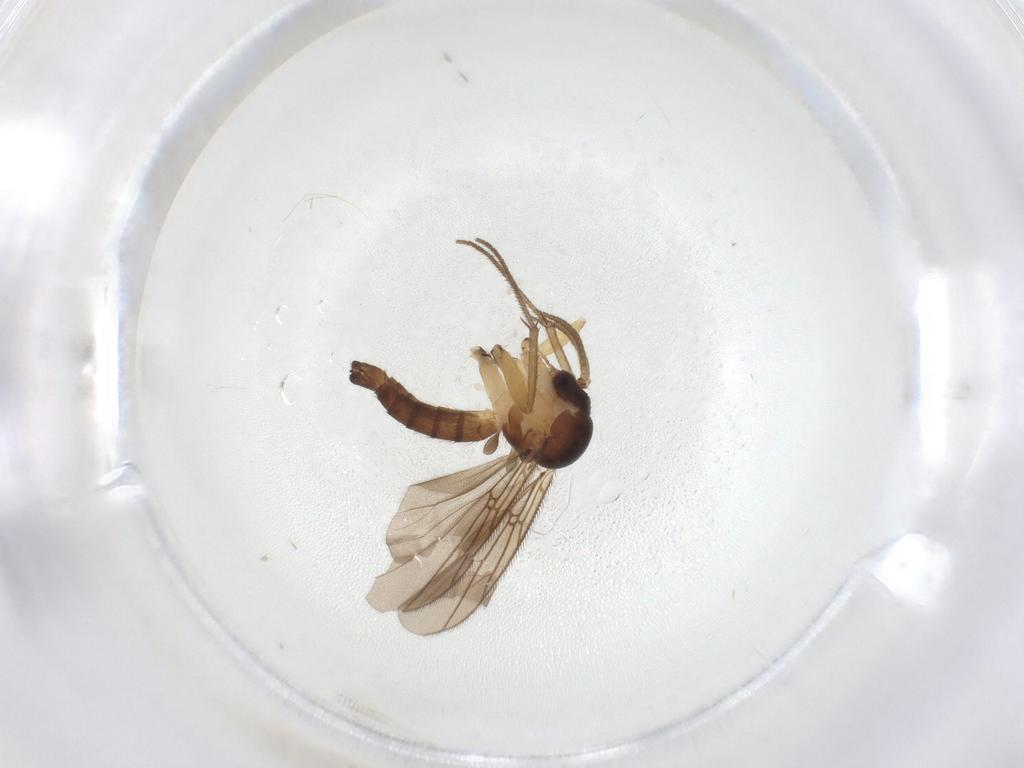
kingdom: Animalia
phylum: Arthropoda
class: Insecta
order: Diptera
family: Mycetophilidae
